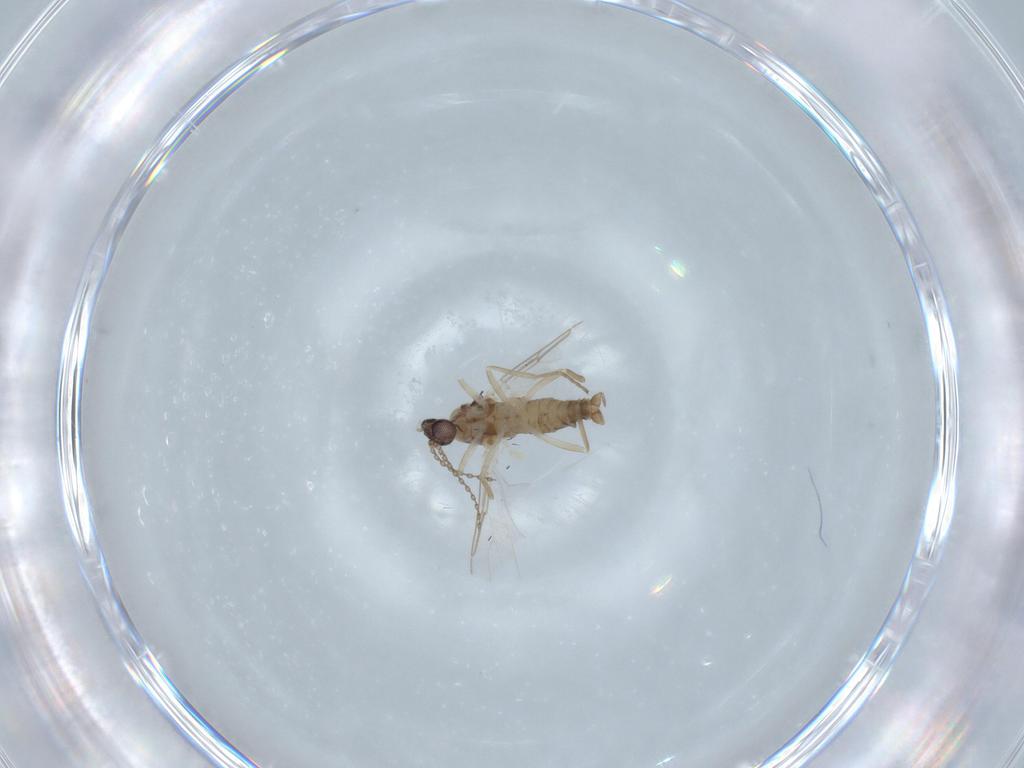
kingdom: Animalia
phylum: Arthropoda
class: Insecta
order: Diptera
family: Cecidomyiidae
